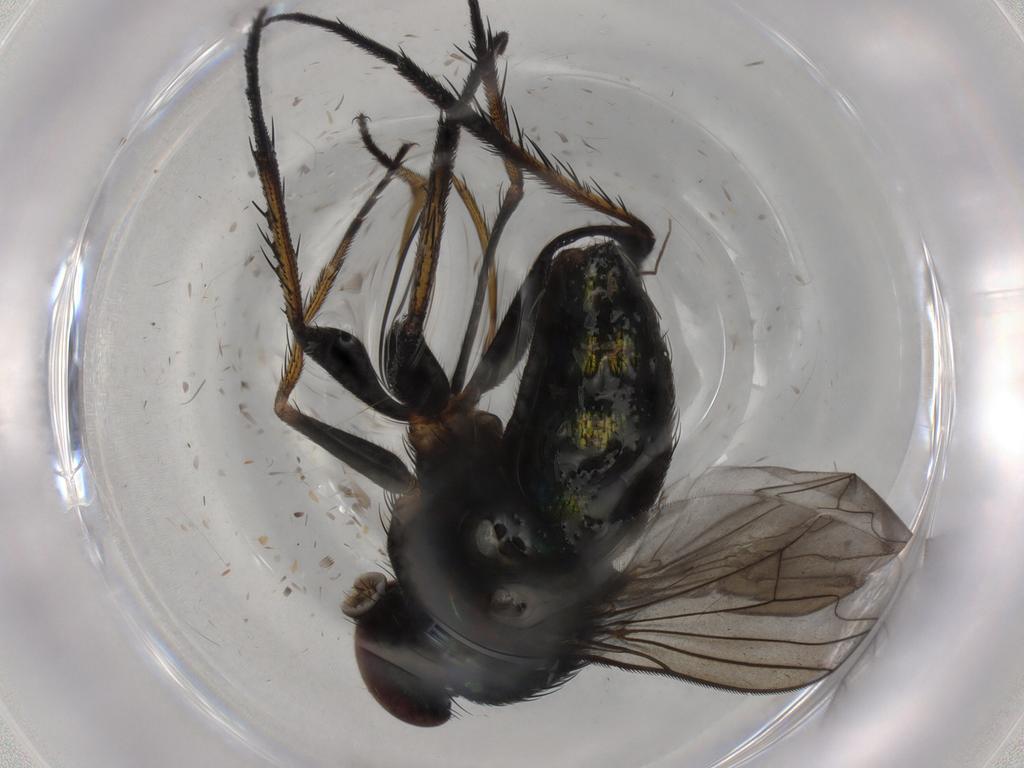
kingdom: Animalia
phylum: Arthropoda
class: Insecta
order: Diptera
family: Dolichopodidae
